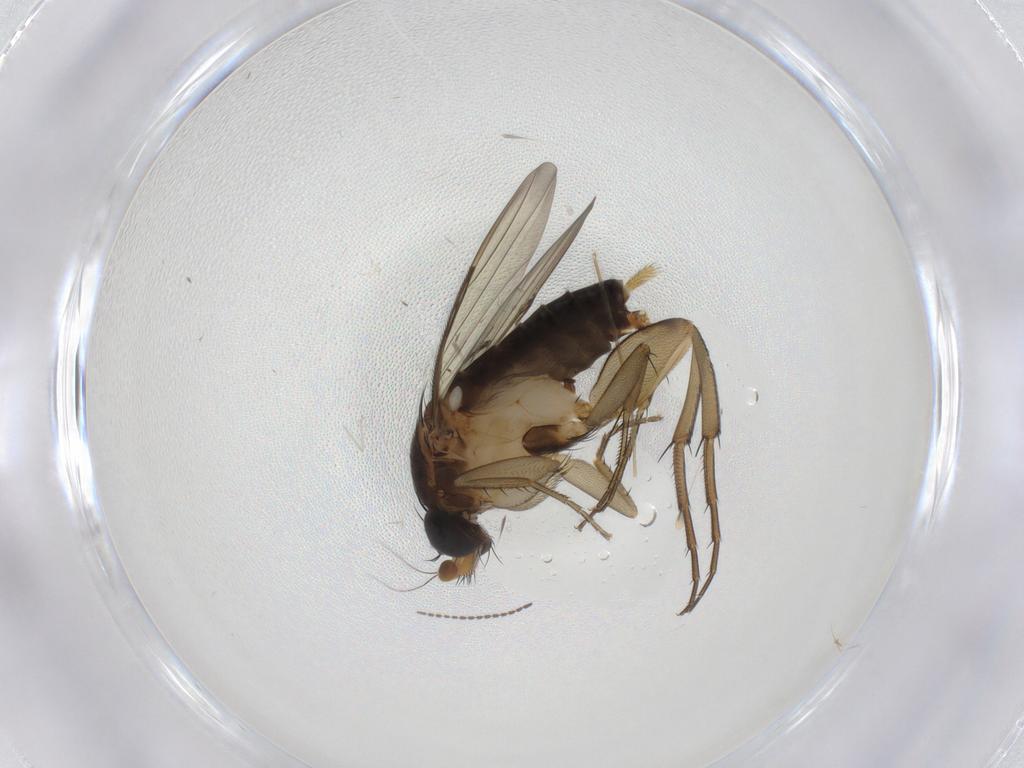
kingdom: Animalia
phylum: Arthropoda
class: Insecta
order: Diptera
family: Phoridae
